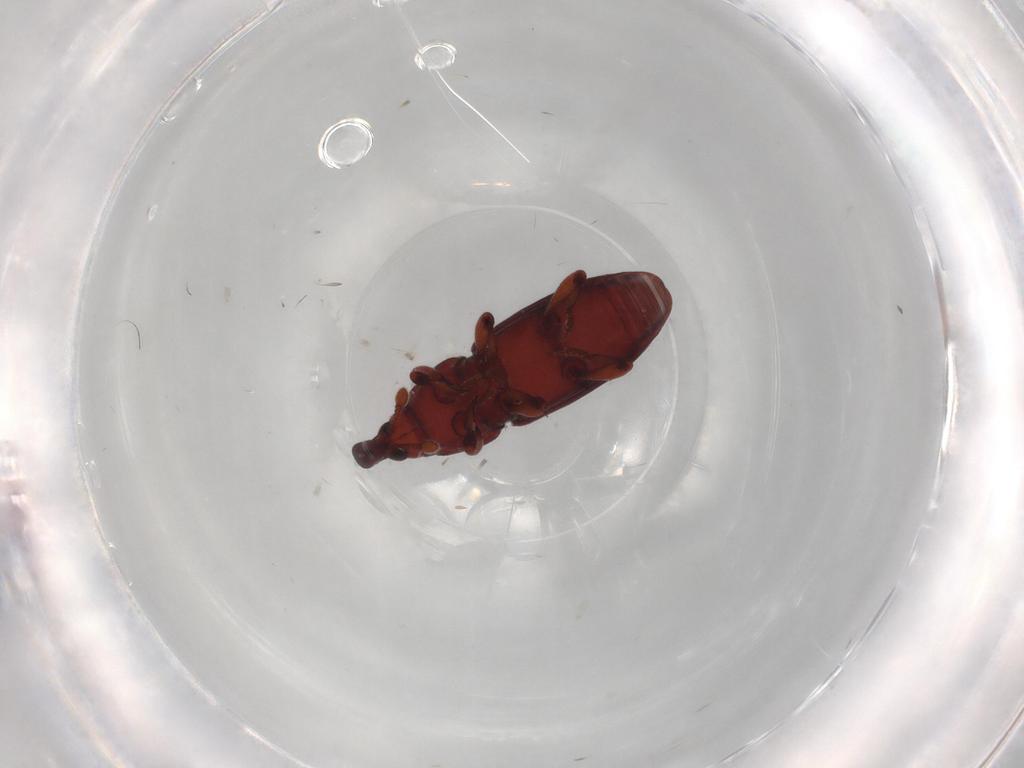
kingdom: Animalia
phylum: Arthropoda
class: Insecta
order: Coleoptera
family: Curculionidae
